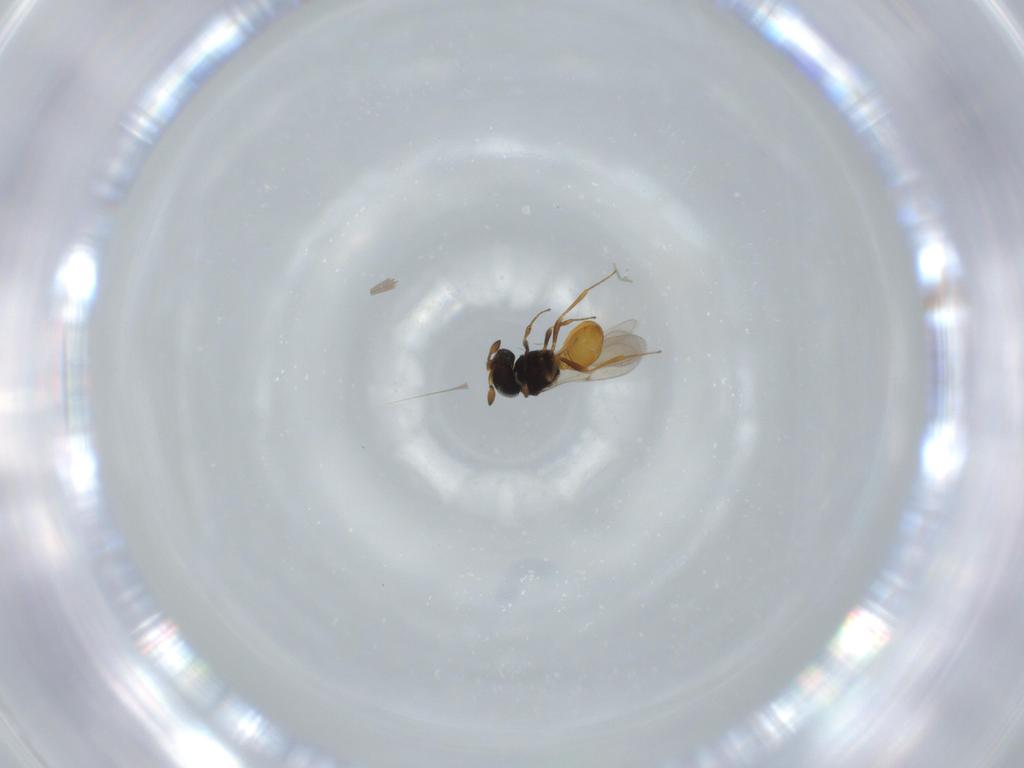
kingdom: Animalia
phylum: Arthropoda
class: Insecta
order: Hymenoptera
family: Scelionidae
